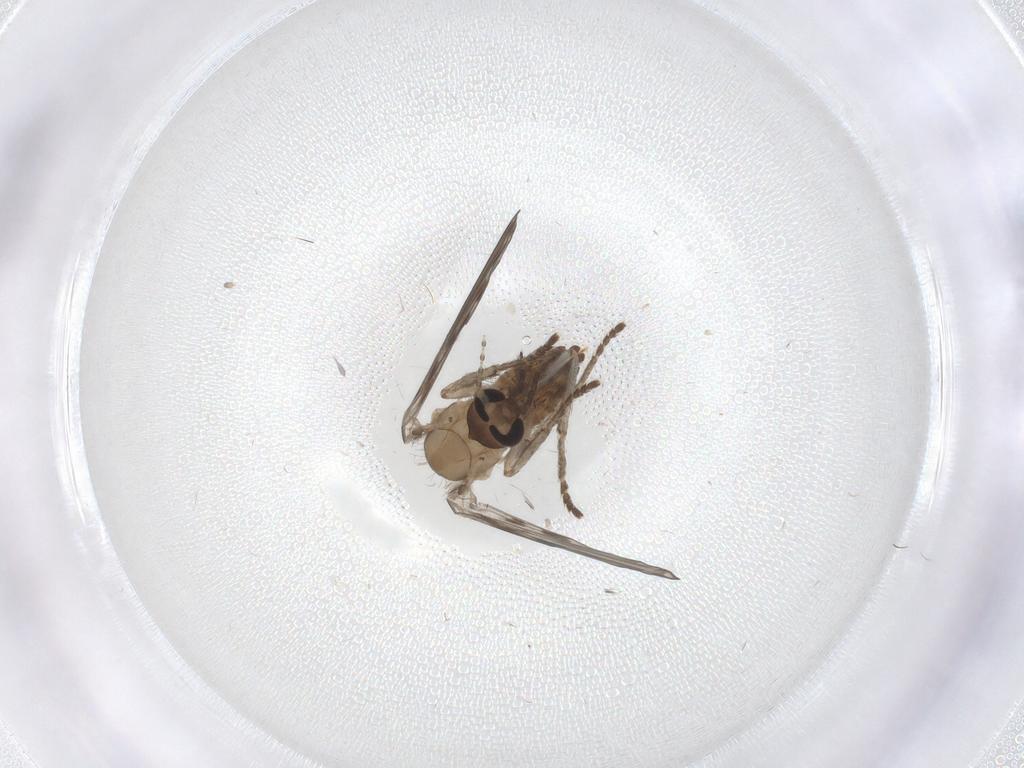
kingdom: Animalia
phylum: Arthropoda
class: Insecta
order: Diptera
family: Psychodidae
